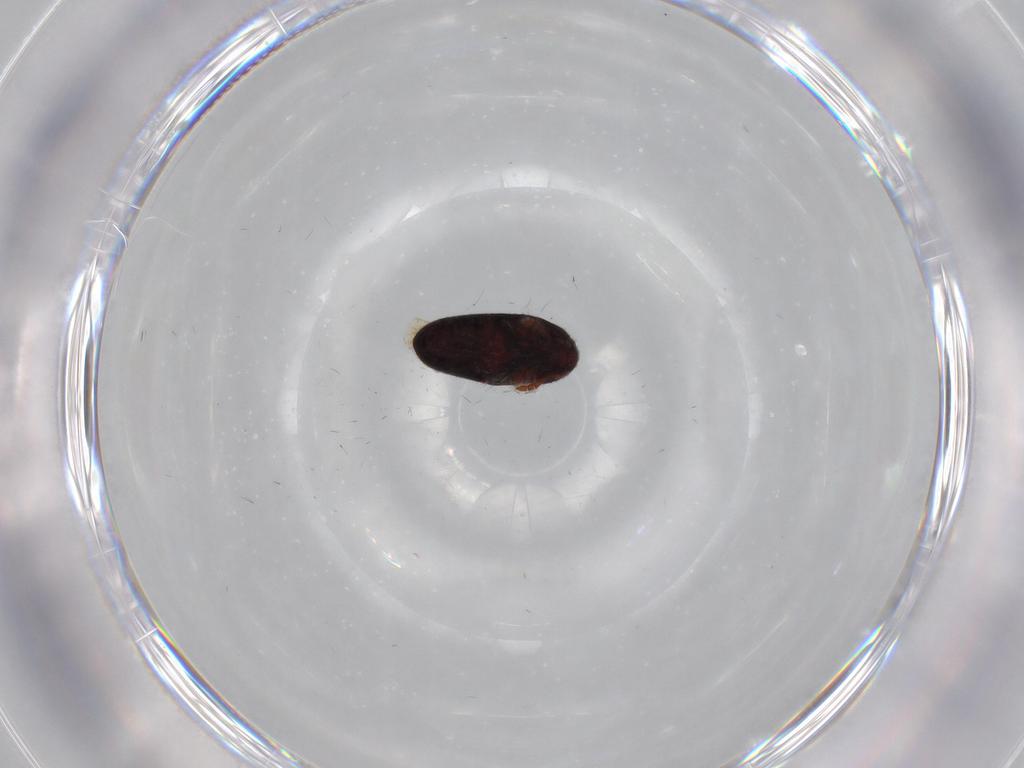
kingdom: Animalia
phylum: Arthropoda
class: Insecta
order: Coleoptera
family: Throscidae
